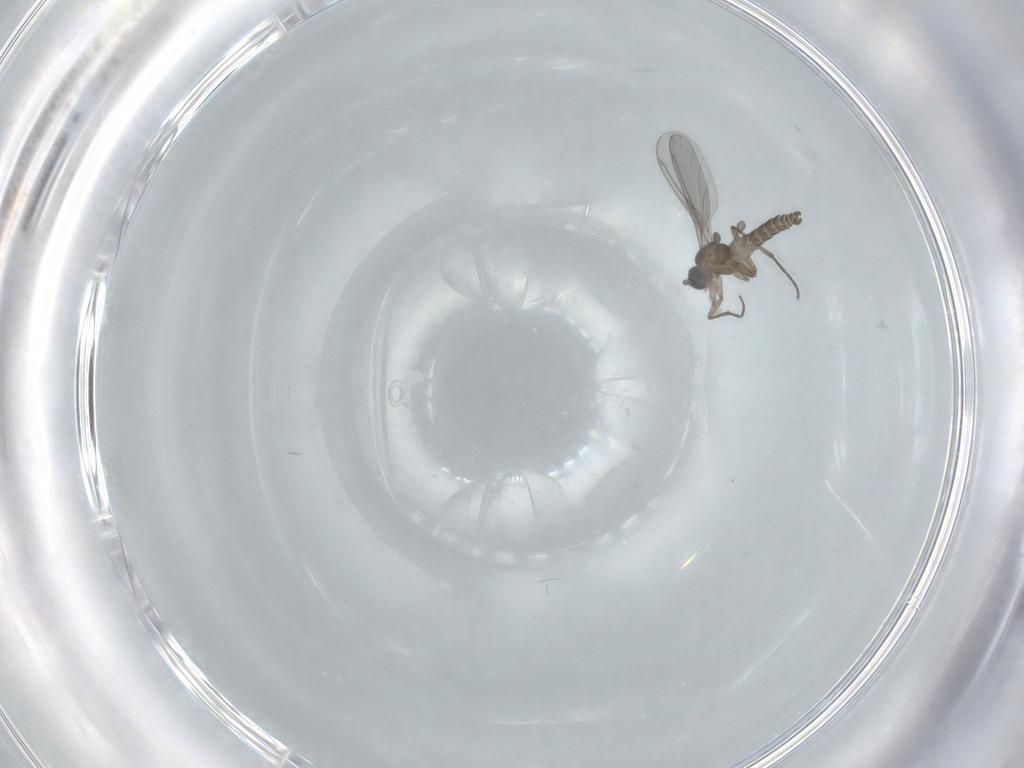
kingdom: Animalia
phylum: Arthropoda
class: Insecta
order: Diptera
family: Sciaridae
